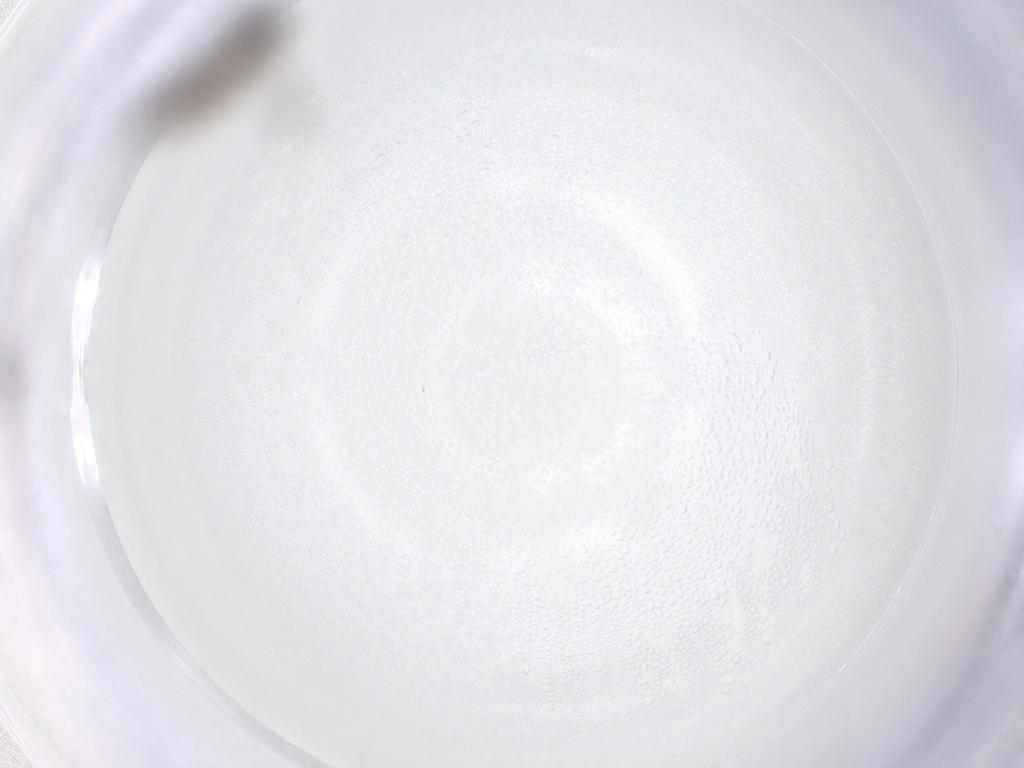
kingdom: Animalia
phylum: Arthropoda
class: Insecta
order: Diptera
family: Sciaridae
